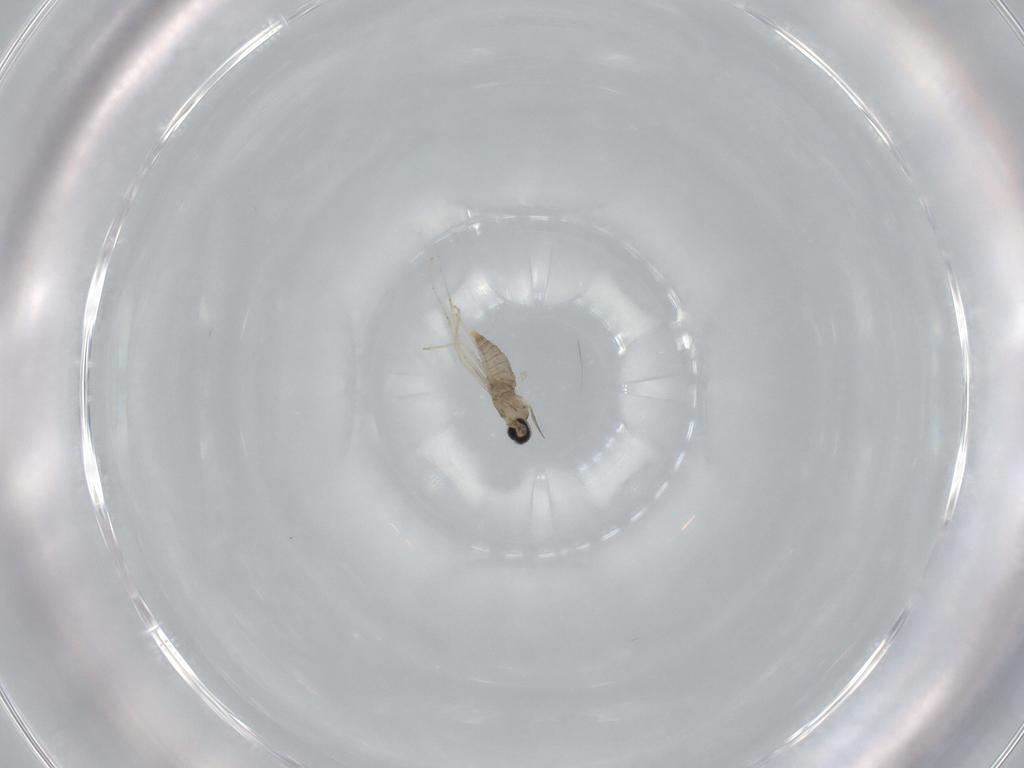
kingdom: Animalia
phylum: Arthropoda
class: Insecta
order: Diptera
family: Cecidomyiidae
